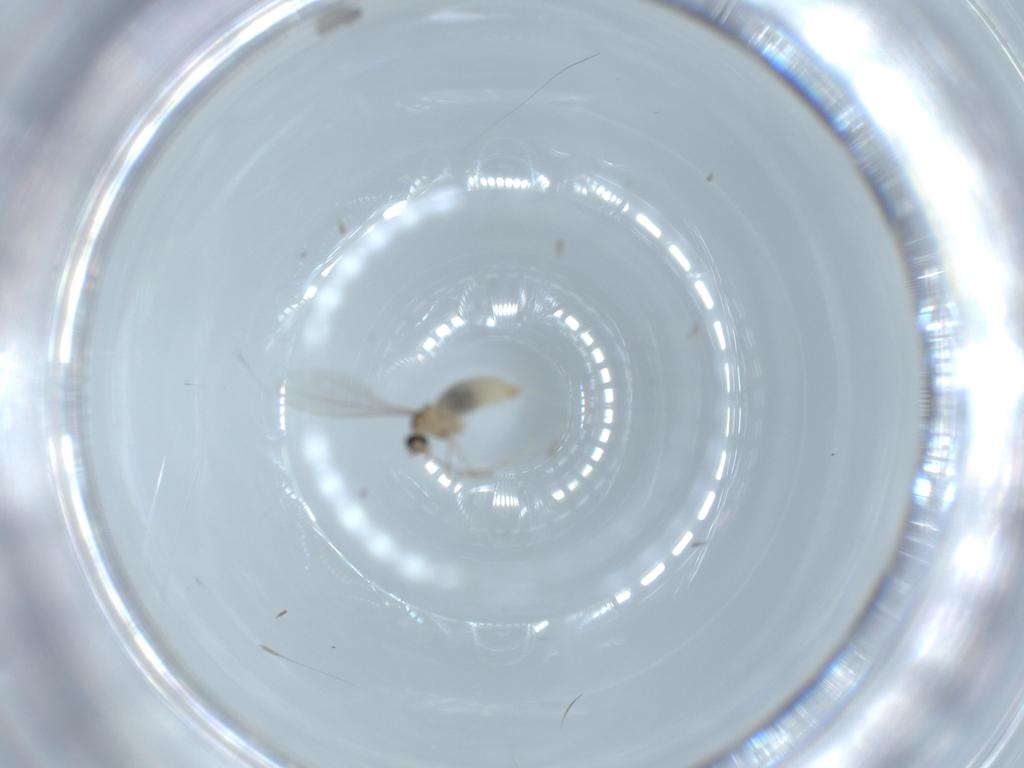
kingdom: Animalia
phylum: Arthropoda
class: Insecta
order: Diptera
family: Cecidomyiidae
